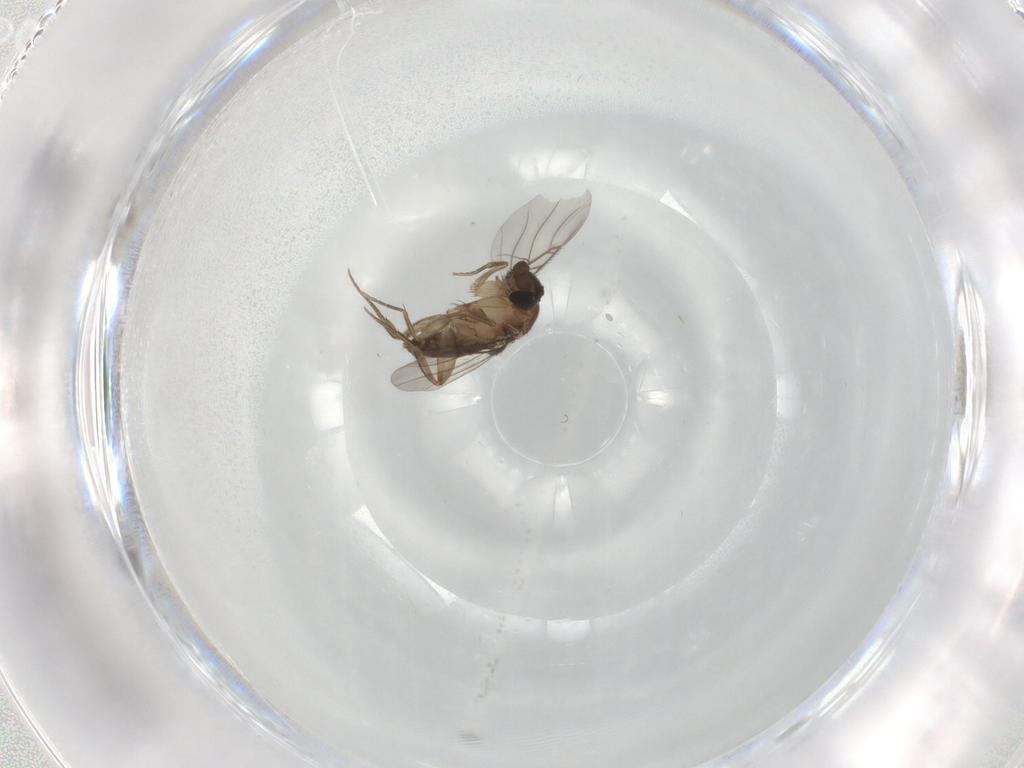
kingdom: Animalia
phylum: Arthropoda
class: Insecta
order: Diptera
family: Phoridae
